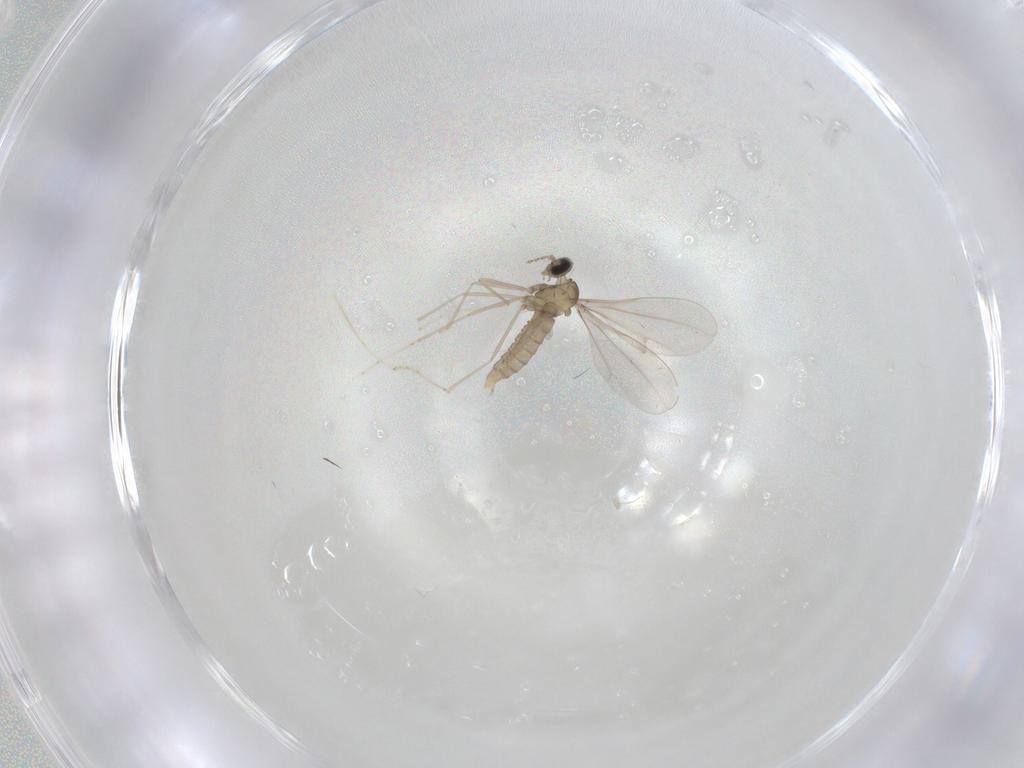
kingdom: Animalia
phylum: Arthropoda
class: Insecta
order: Diptera
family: Cecidomyiidae
